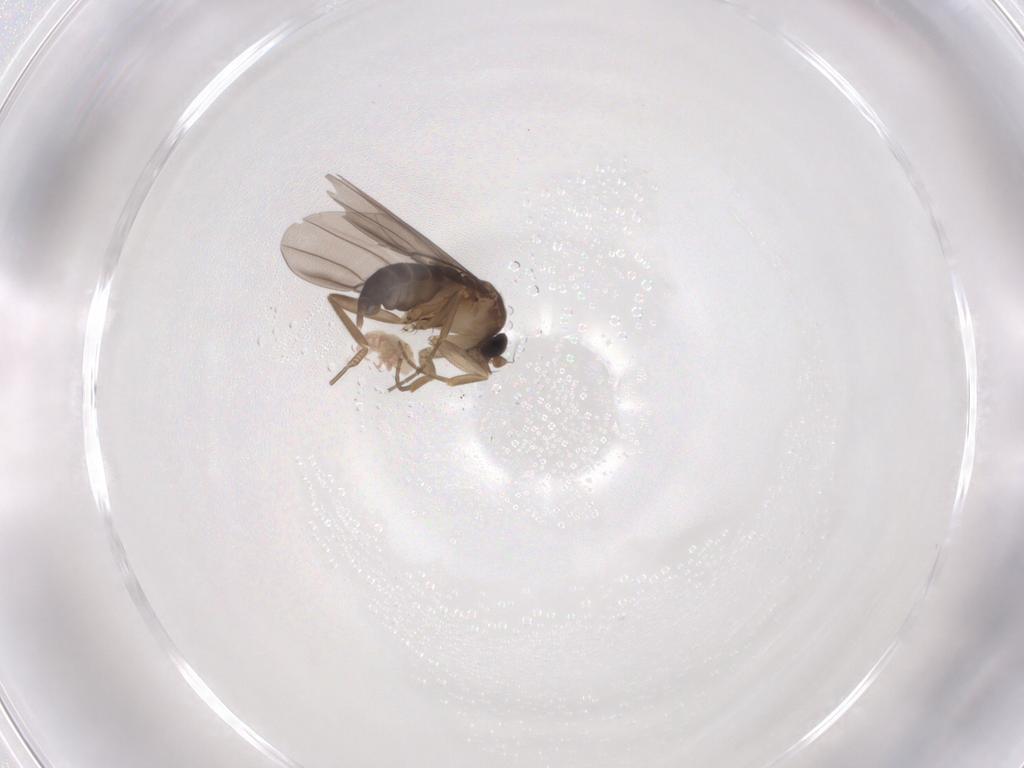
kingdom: Animalia
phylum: Arthropoda
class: Insecta
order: Diptera
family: Phoridae
